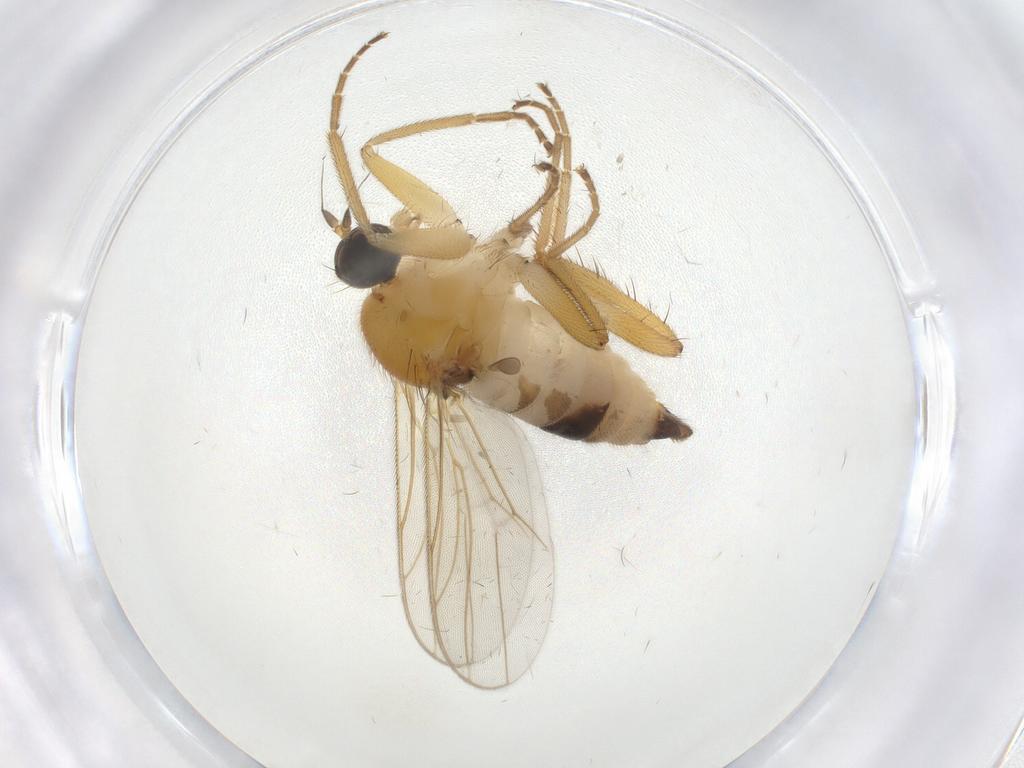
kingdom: Animalia
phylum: Arthropoda
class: Insecta
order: Diptera
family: Hybotidae
